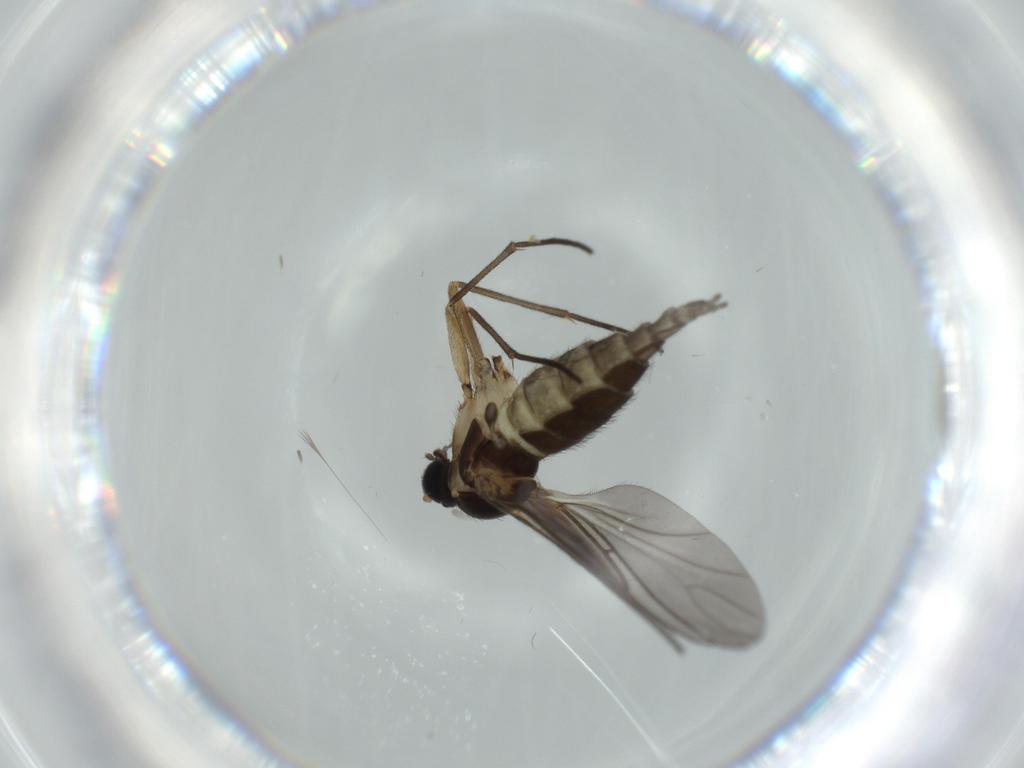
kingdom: Animalia
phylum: Arthropoda
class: Insecta
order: Diptera
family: Sciaridae
